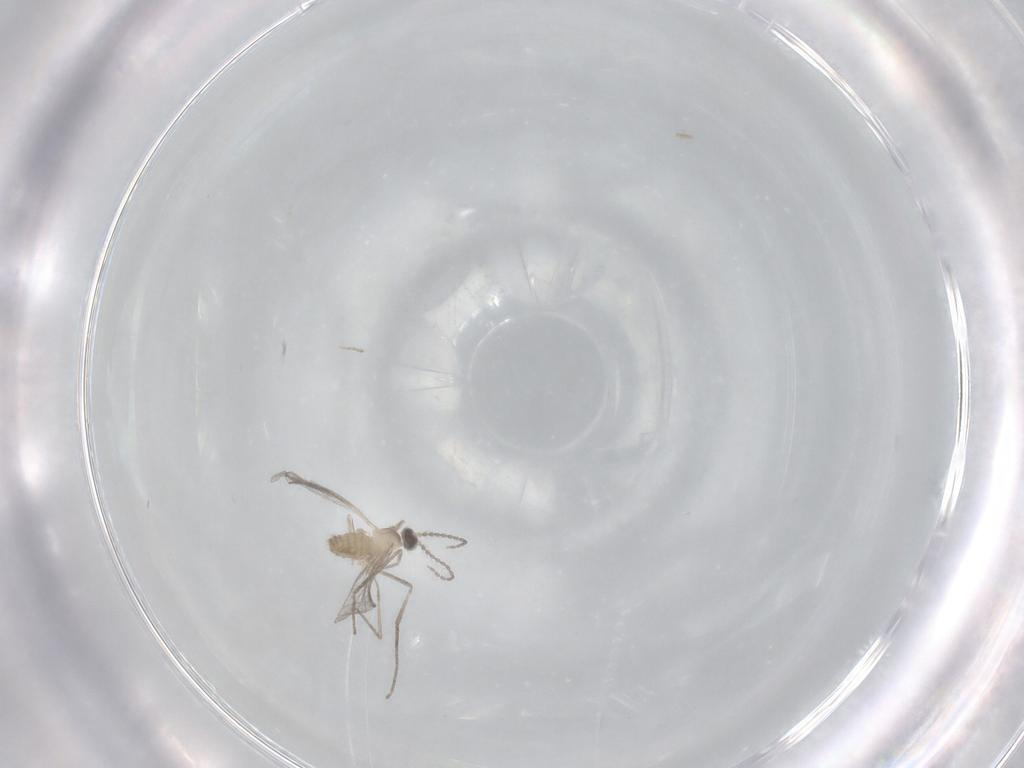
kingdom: Animalia
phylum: Arthropoda
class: Insecta
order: Diptera
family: Cecidomyiidae
